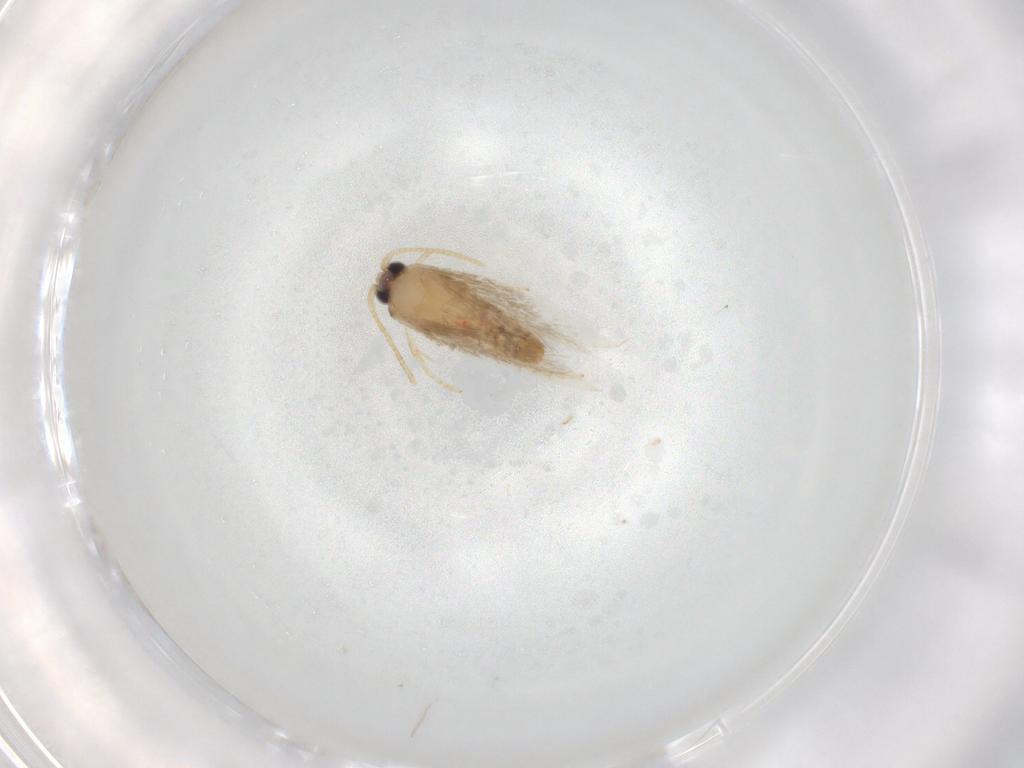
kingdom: Animalia
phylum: Arthropoda
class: Insecta
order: Lepidoptera
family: Nepticulidae
